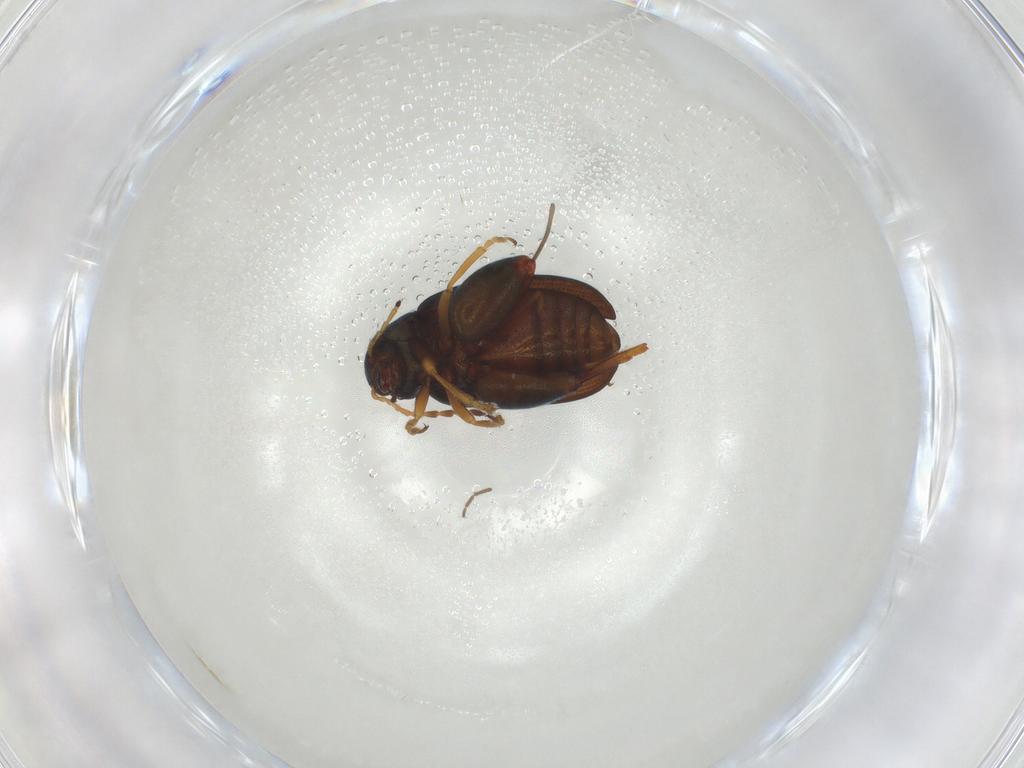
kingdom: Animalia
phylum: Arthropoda
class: Insecta
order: Coleoptera
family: Chrysomelidae
